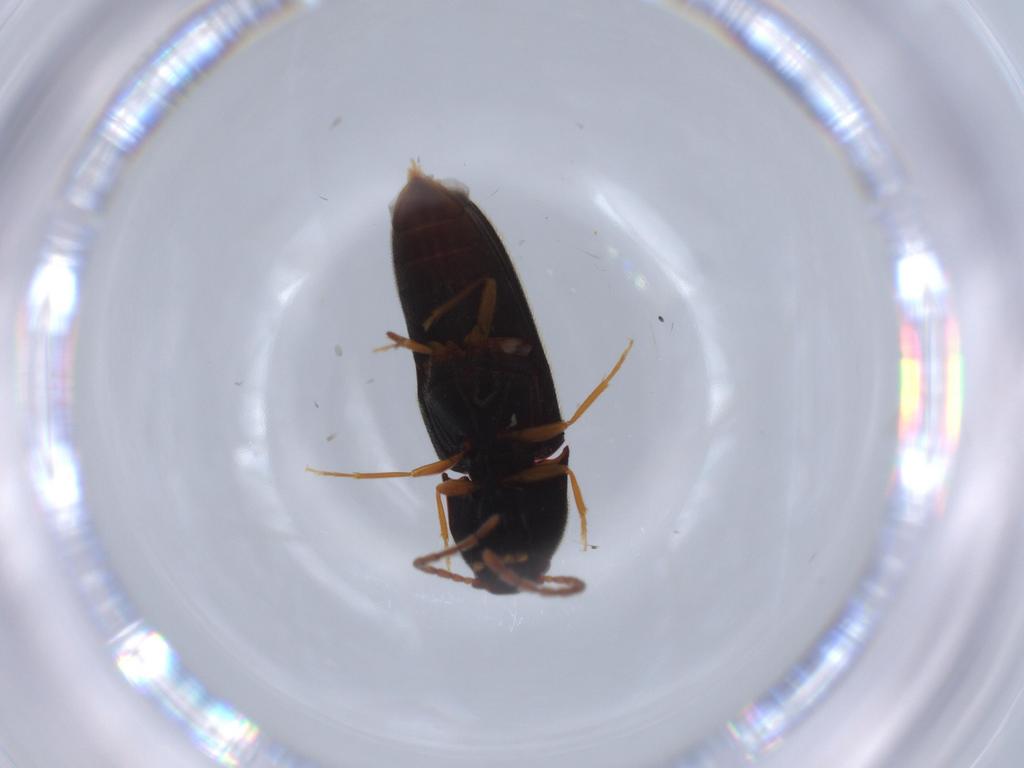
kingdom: Animalia
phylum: Arthropoda
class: Insecta
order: Coleoptera
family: Elateridae
